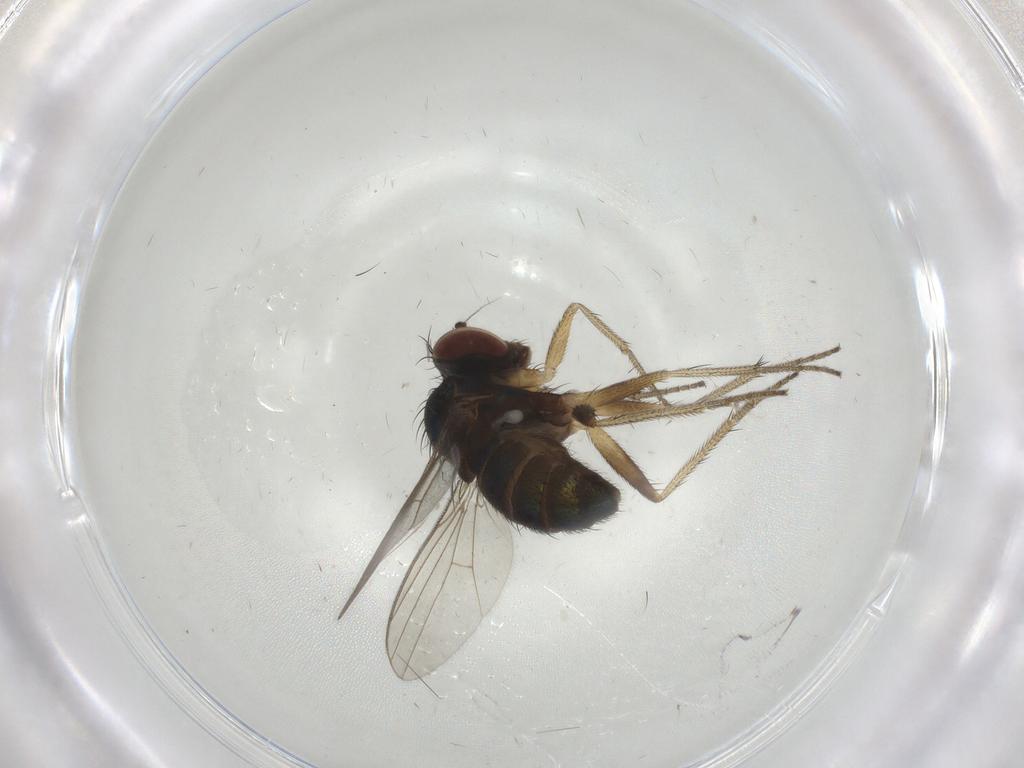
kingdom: Animalia
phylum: Arthropoda
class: Insecta
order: Diptera
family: Dolichopodidae
